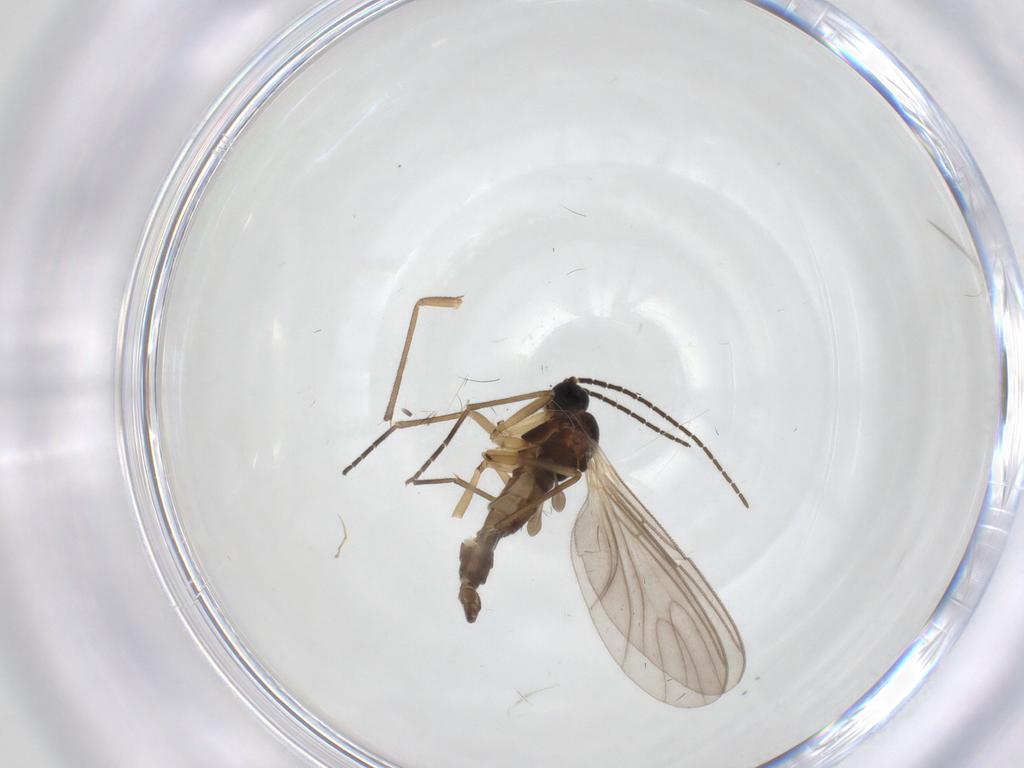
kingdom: Animalia
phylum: Arthropoda
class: Insecta
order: Diptera
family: Sciaridae
